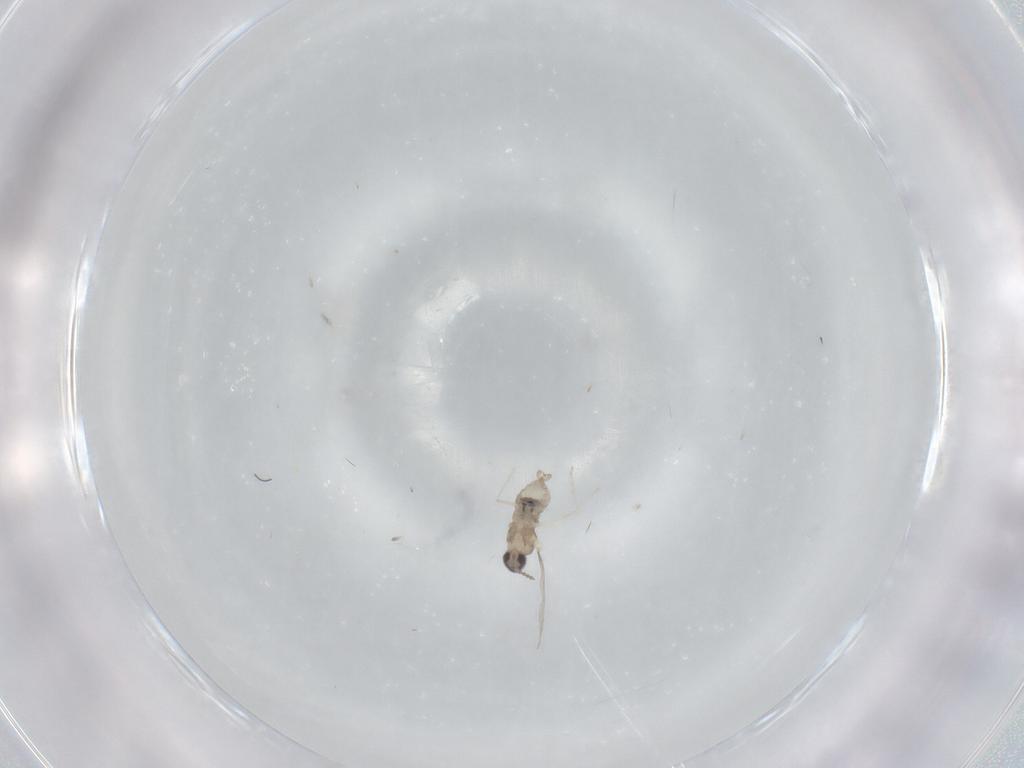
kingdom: Animalia
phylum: Arthropoda
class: Insecta
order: Diptera
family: Cecidomyiidae
